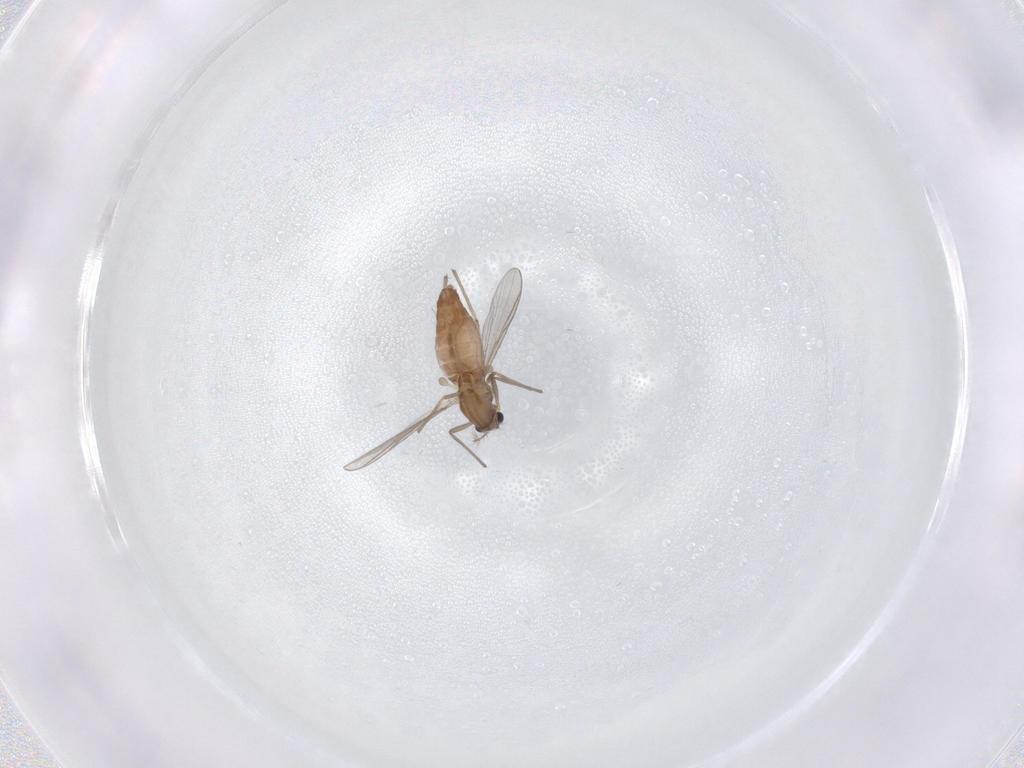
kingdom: Animalia
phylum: Arthropoda
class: Insecta
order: Diptera
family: Chironomidae
